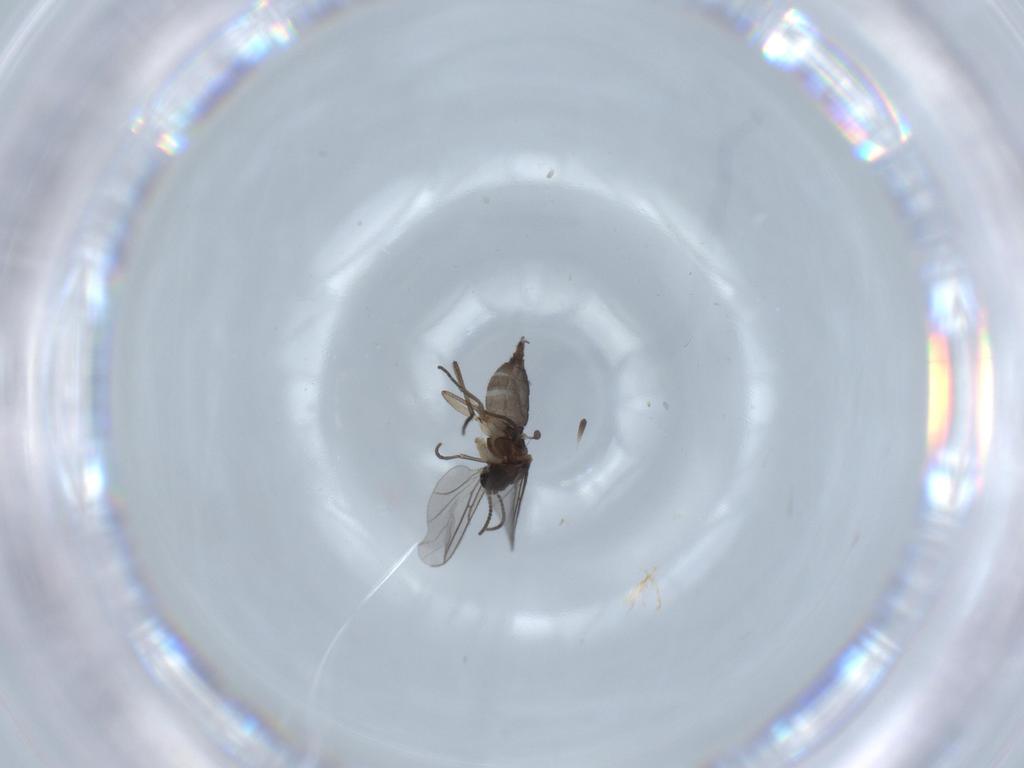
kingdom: Animalia
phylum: Arthropoda
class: Insecta
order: Diptera
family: Sciaridae
